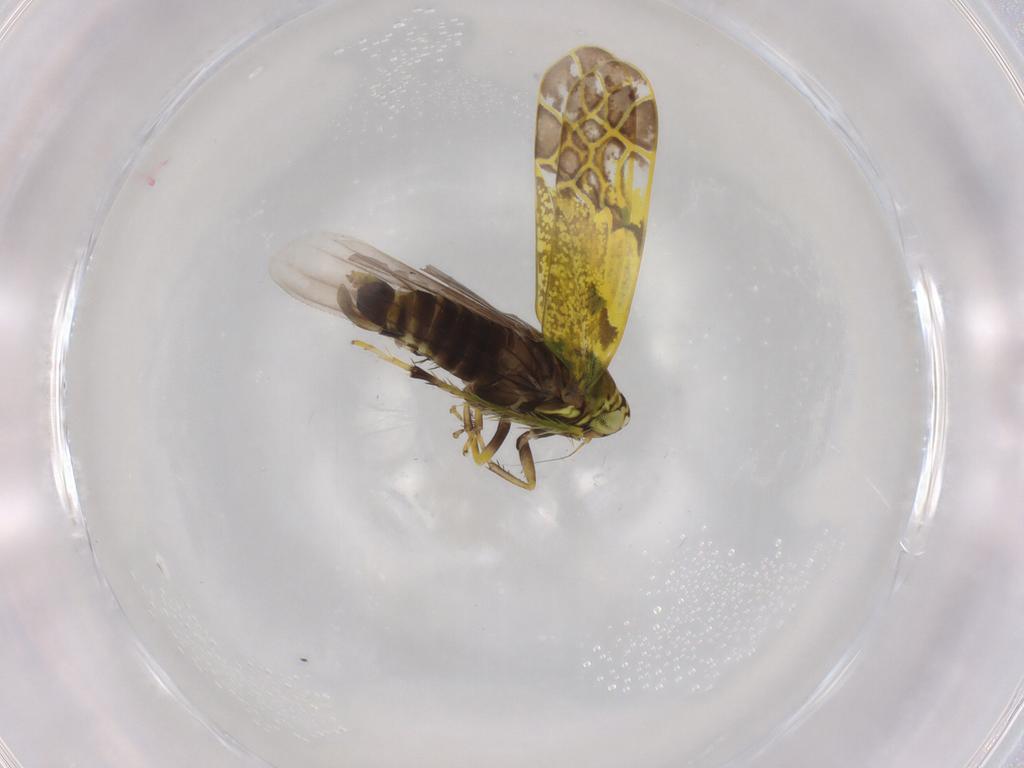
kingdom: Animalia
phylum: Arthropoda
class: Insecta
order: Hemiptera
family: Cicadellidae
